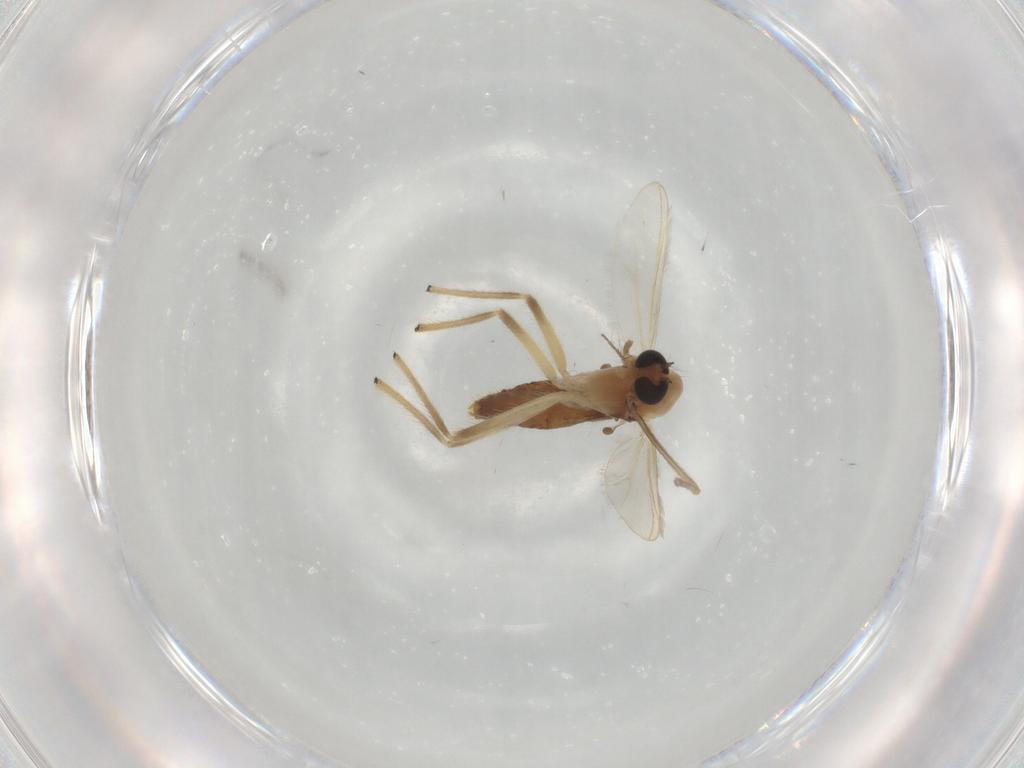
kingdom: Animalia
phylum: Arthropoda
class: Insecta
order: Diptera
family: Chironomidae
